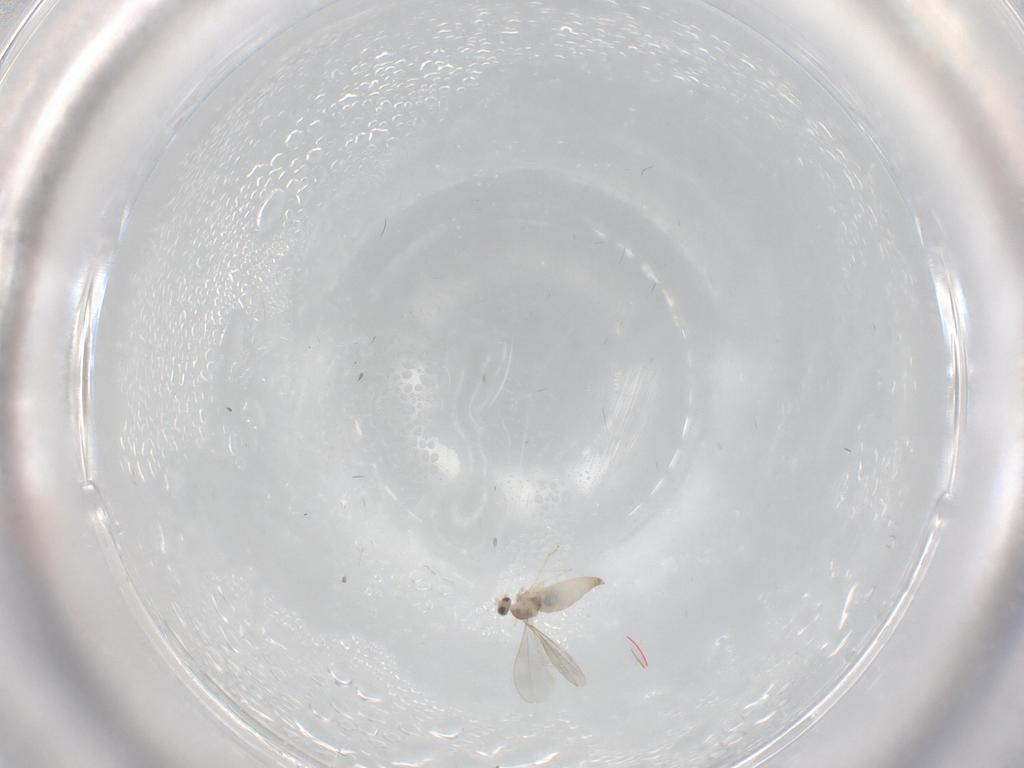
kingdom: Animalia
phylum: Arthropoda
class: Insecta
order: Diptera
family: Cecidomyiidae
